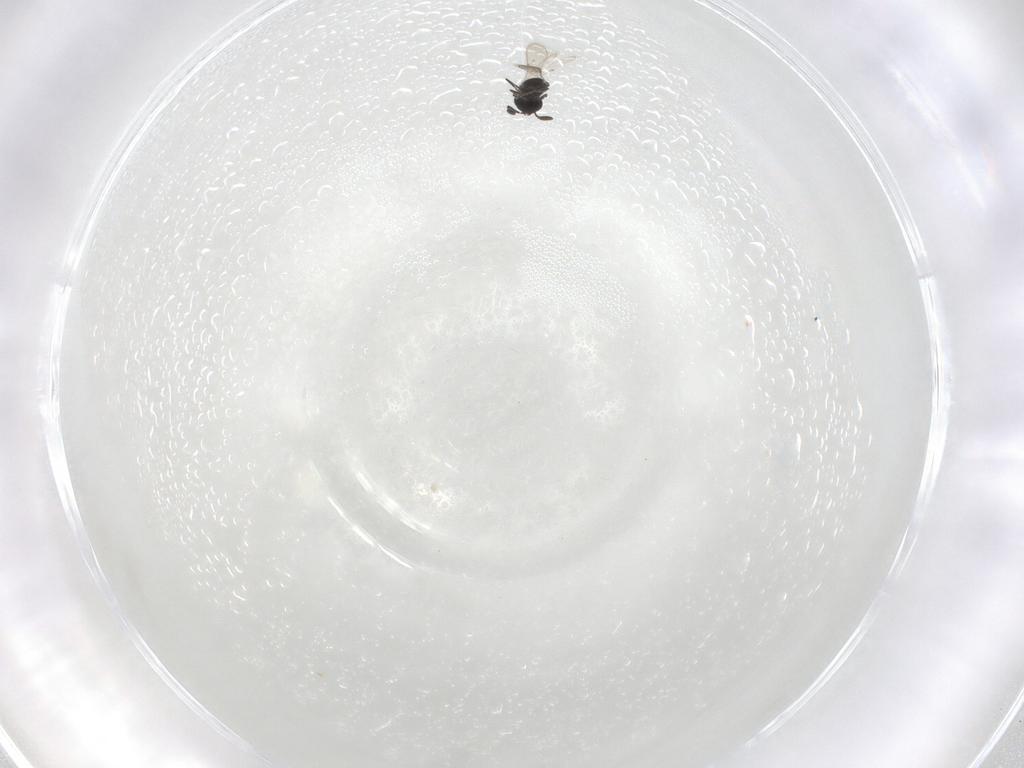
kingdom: Animalia
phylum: Arthropoda
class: Insecta
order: Hymenoptera
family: Scelionidae
